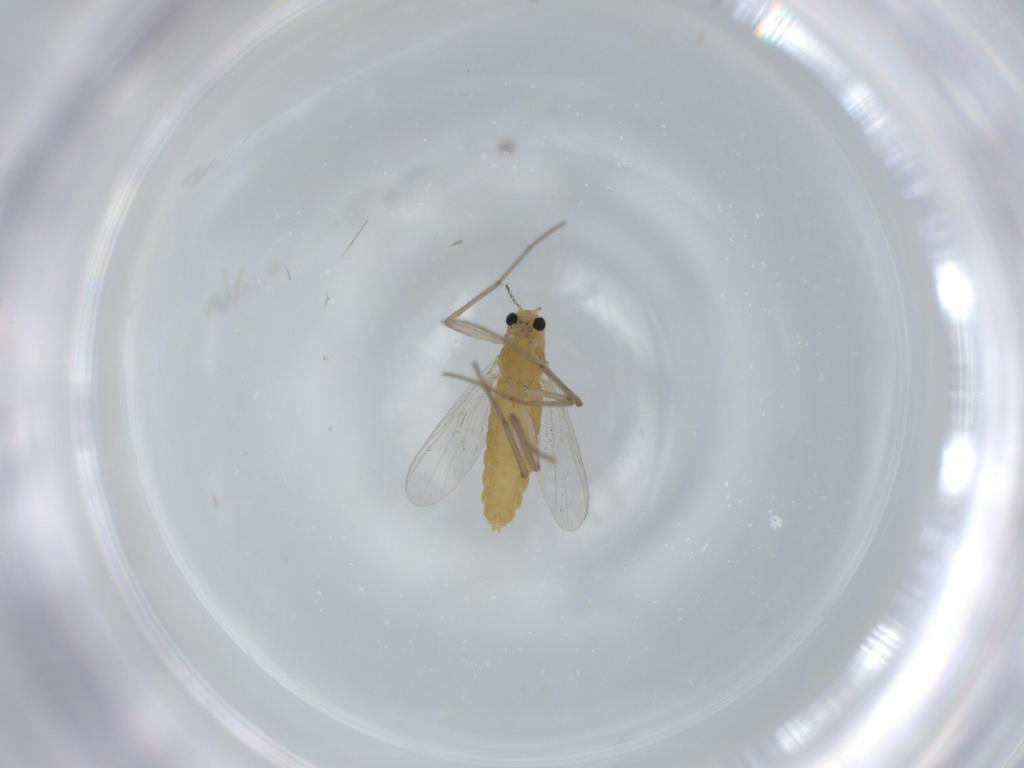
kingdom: Animalia
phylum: Arthropoda
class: Insecta
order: Diptera
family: Chironomidae
